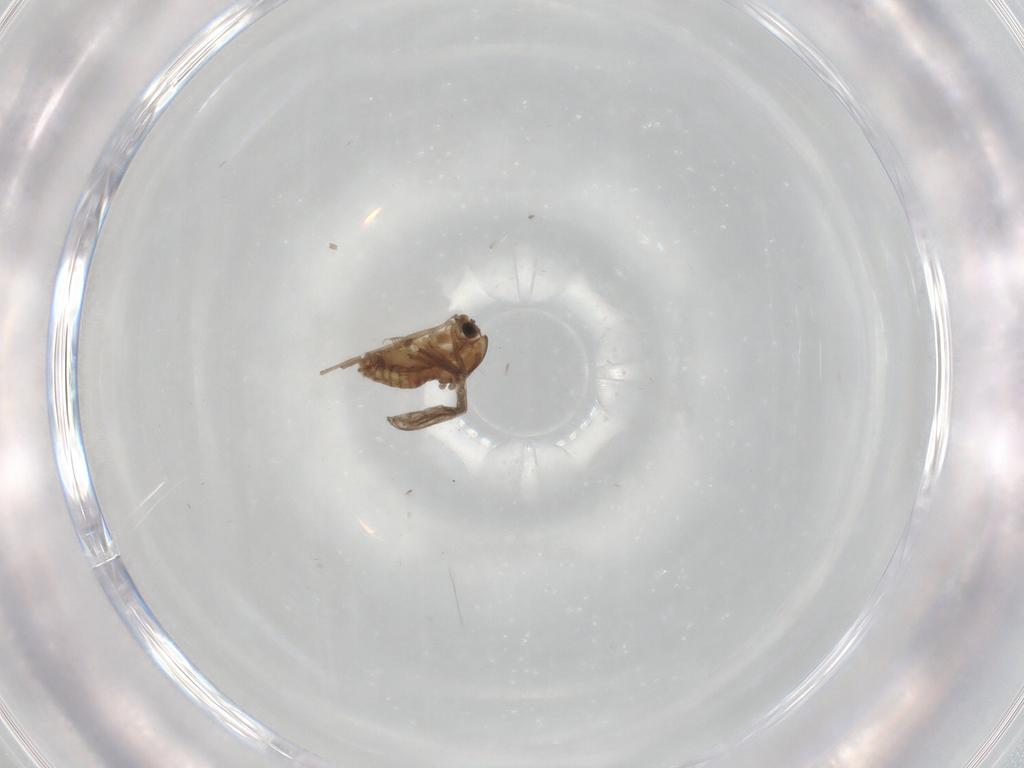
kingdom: Animalia
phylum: Arthropoda
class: Insecta
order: Diptera
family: Chironomidae
